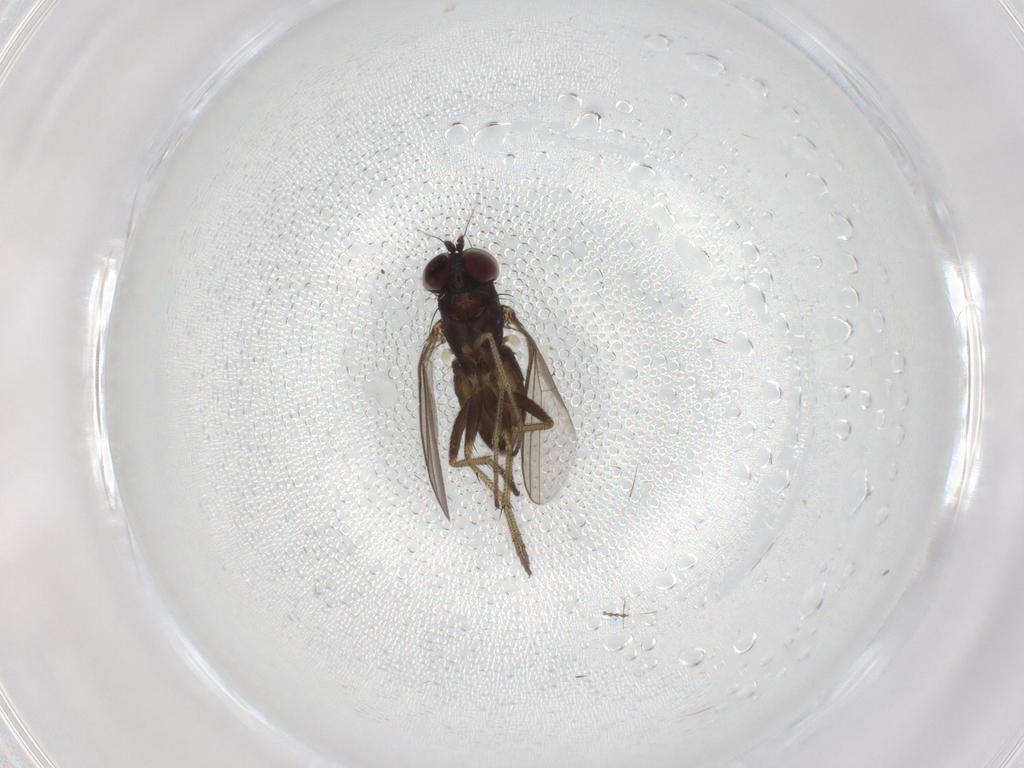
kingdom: Animalia
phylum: Arthropoda
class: Insecta
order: Diptera
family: Dolichopodidae
